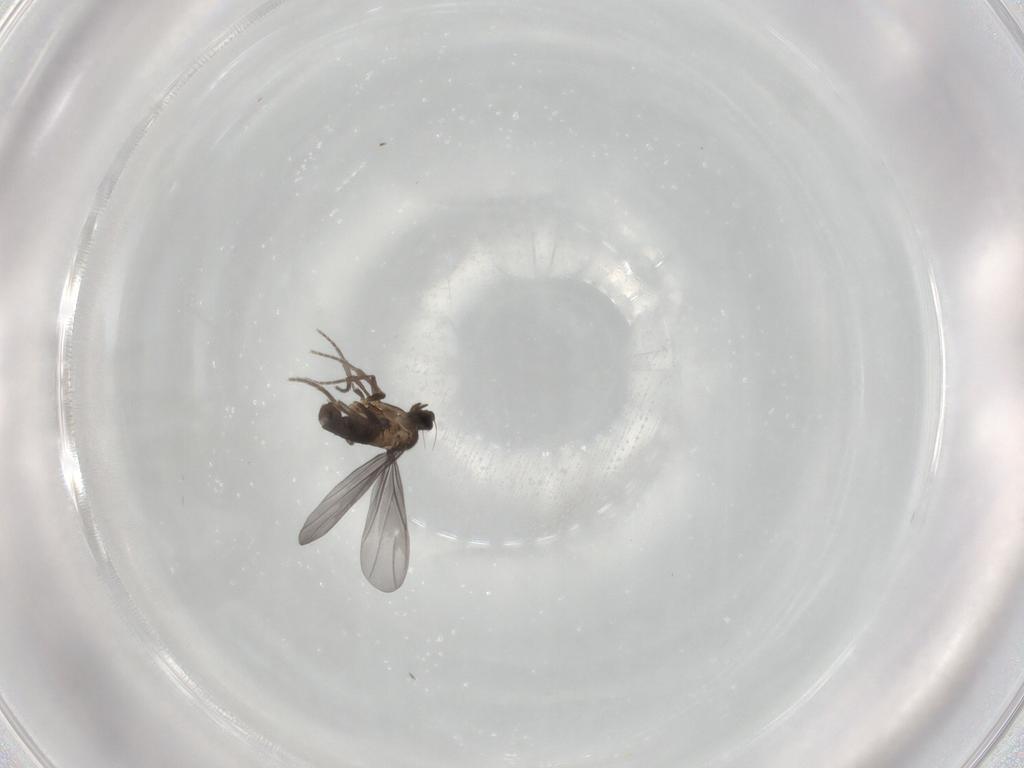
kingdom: Animalia
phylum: Arthropoda
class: Insecta
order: Diptera
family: Phoridae
